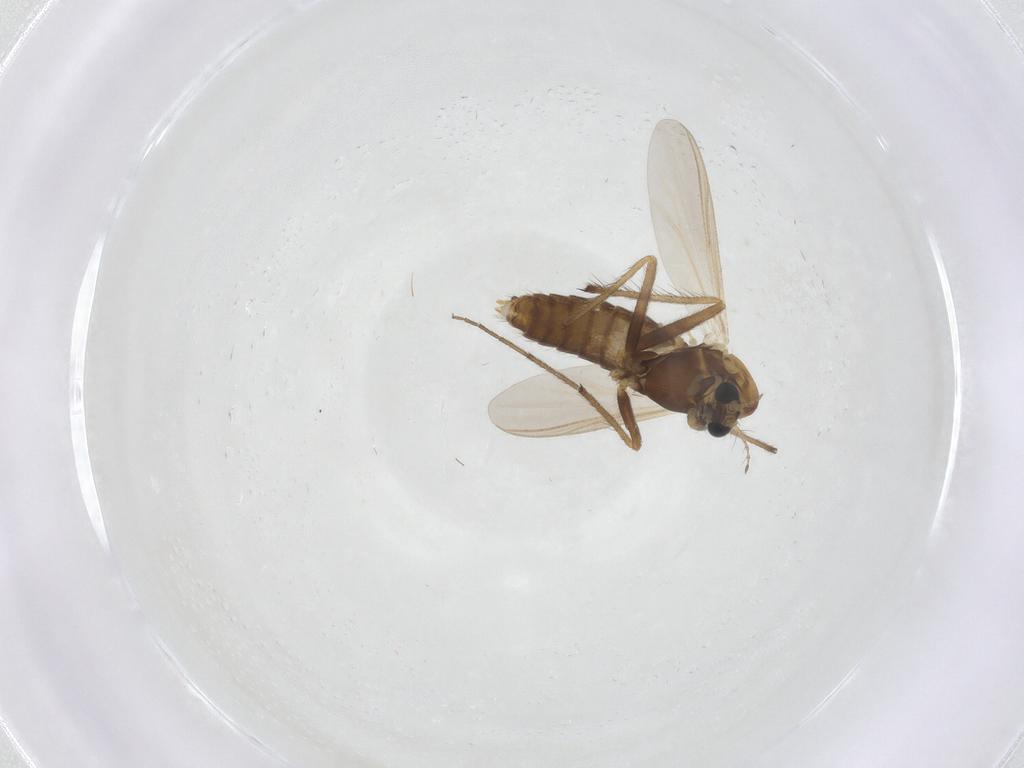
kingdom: Animalia
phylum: Arthropoda
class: Insecta
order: Diptera
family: Chironomidae
